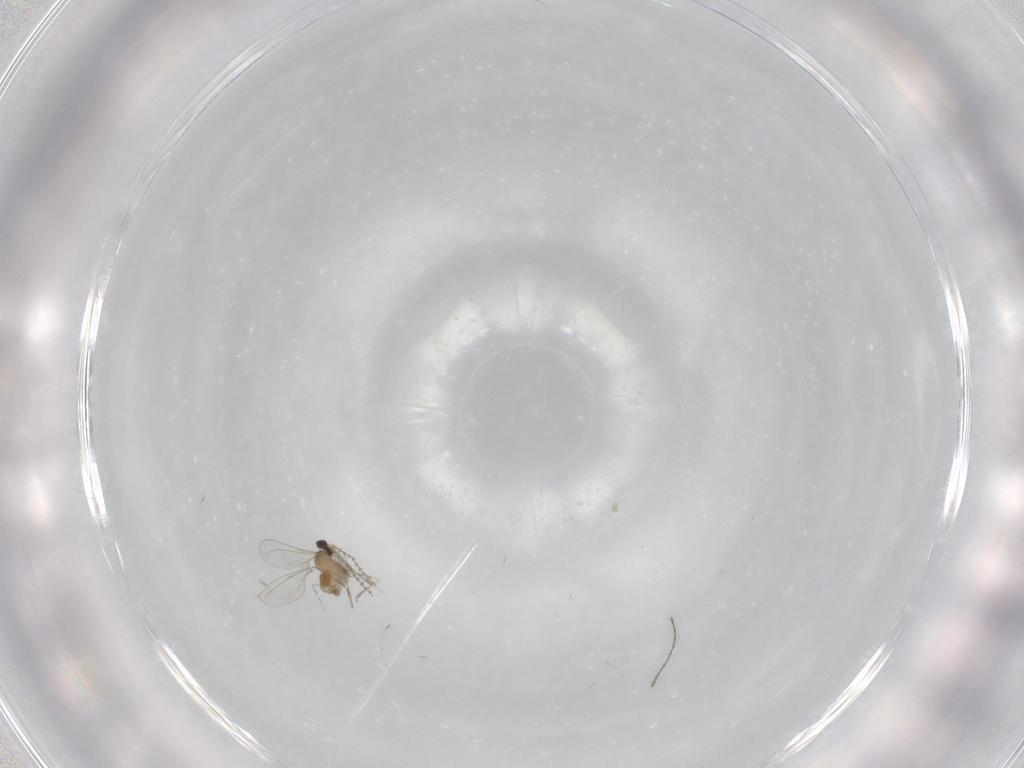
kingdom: Animalia
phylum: Arthropoda
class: Insecta
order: Diptera
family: Ceratopogonidae
